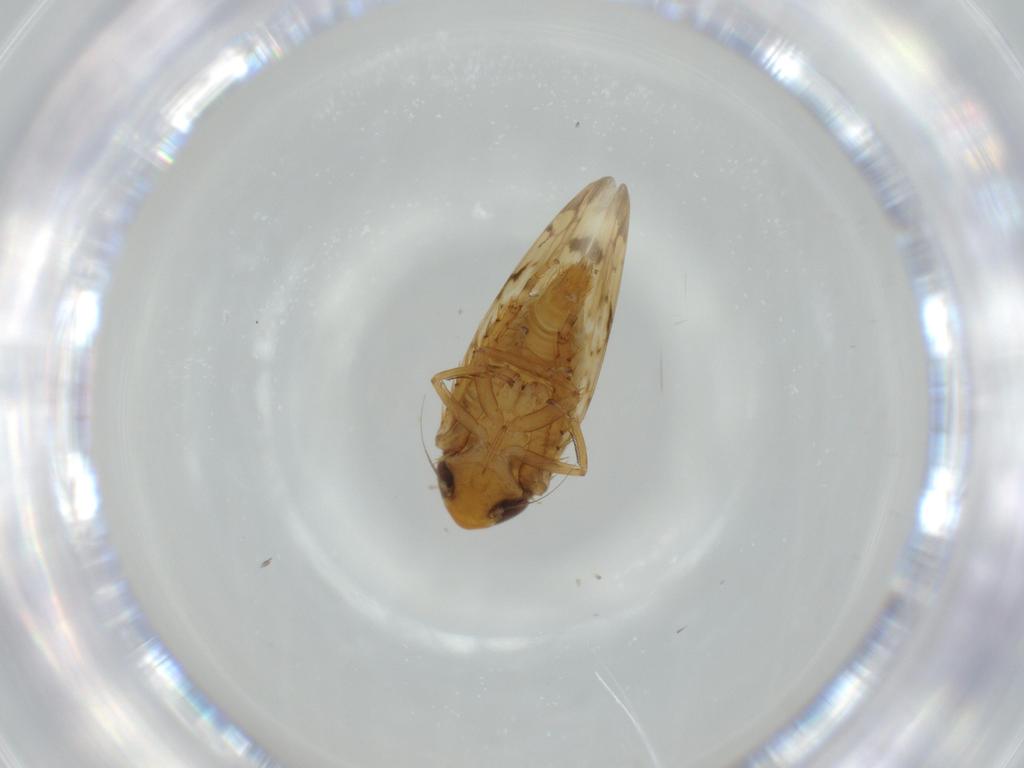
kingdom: Animalia
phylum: Arthropoda
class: Insecta
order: Hemiptera
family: Cicadellidae
